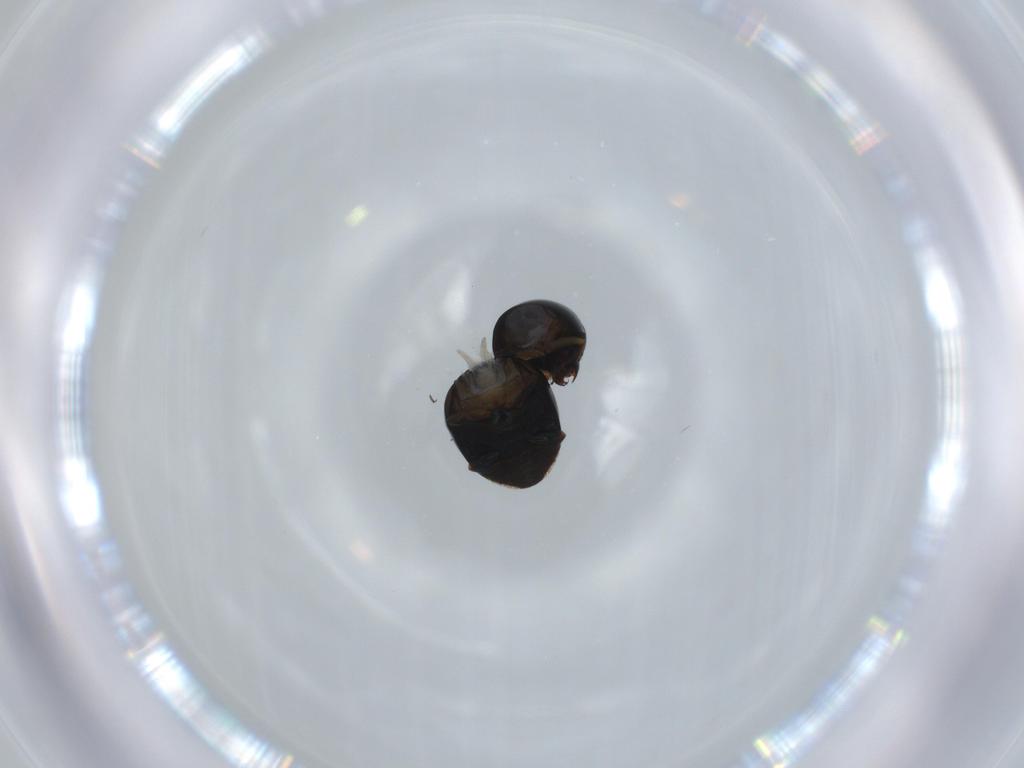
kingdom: Animalia
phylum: Arthropoda
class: Insecta
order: Coleoptera
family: Cybocephalidae
